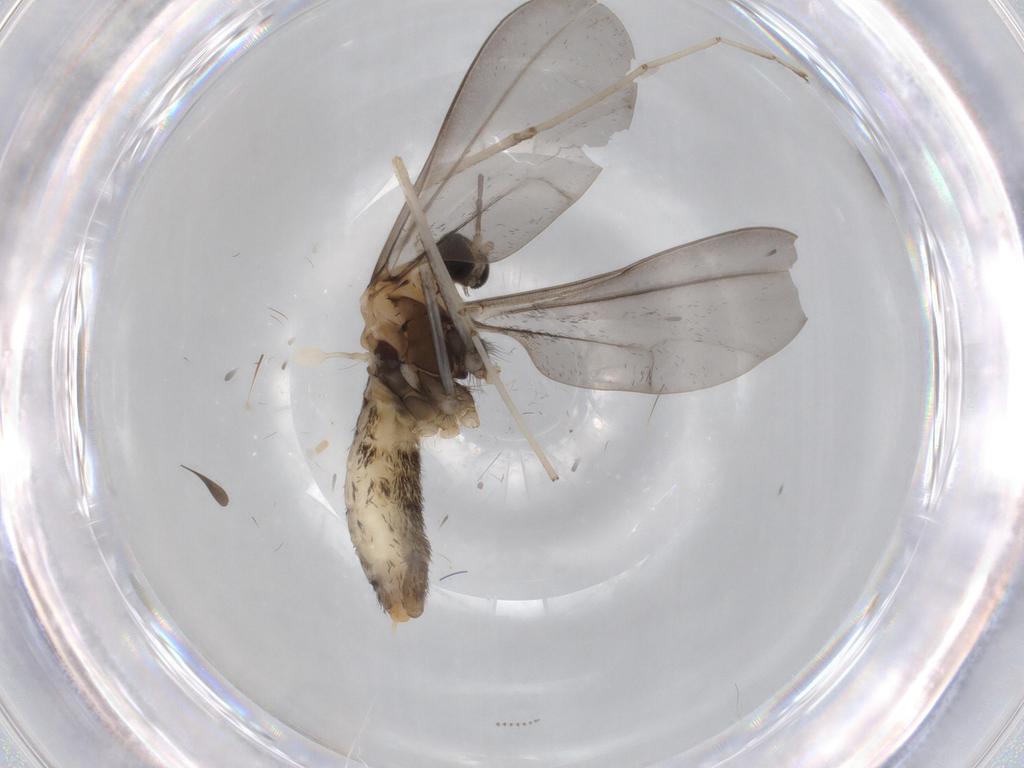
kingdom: Animalia
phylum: Arthropoda
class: Insecta
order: Diptera
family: Cecidomyiidae
